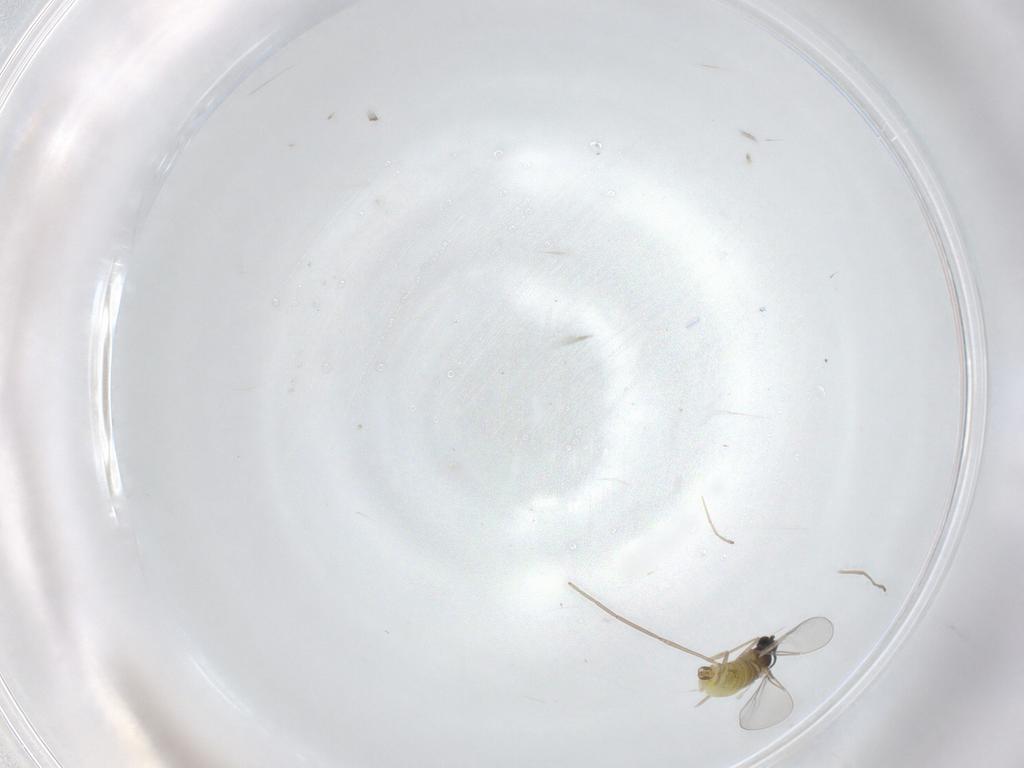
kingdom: Animalia
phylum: Arthropoda
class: Insecta
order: Diptera
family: Cecidomyiidae
